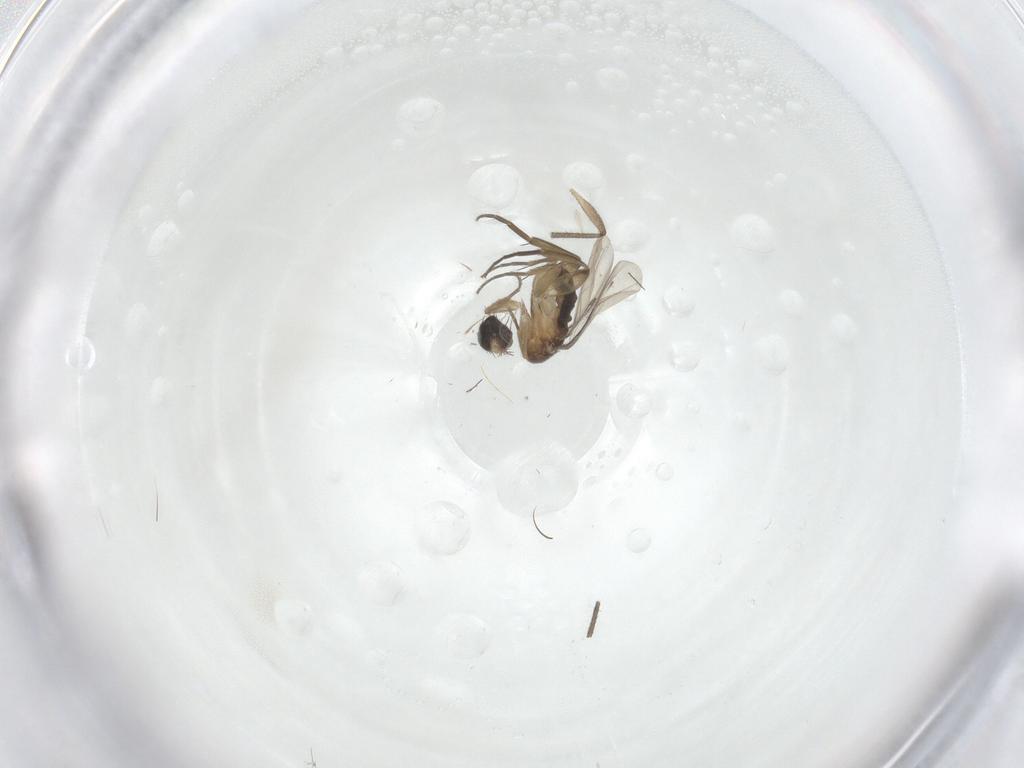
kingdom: Animalia
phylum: Arthropoda
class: Insecta
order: Diptera
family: Phoridae
